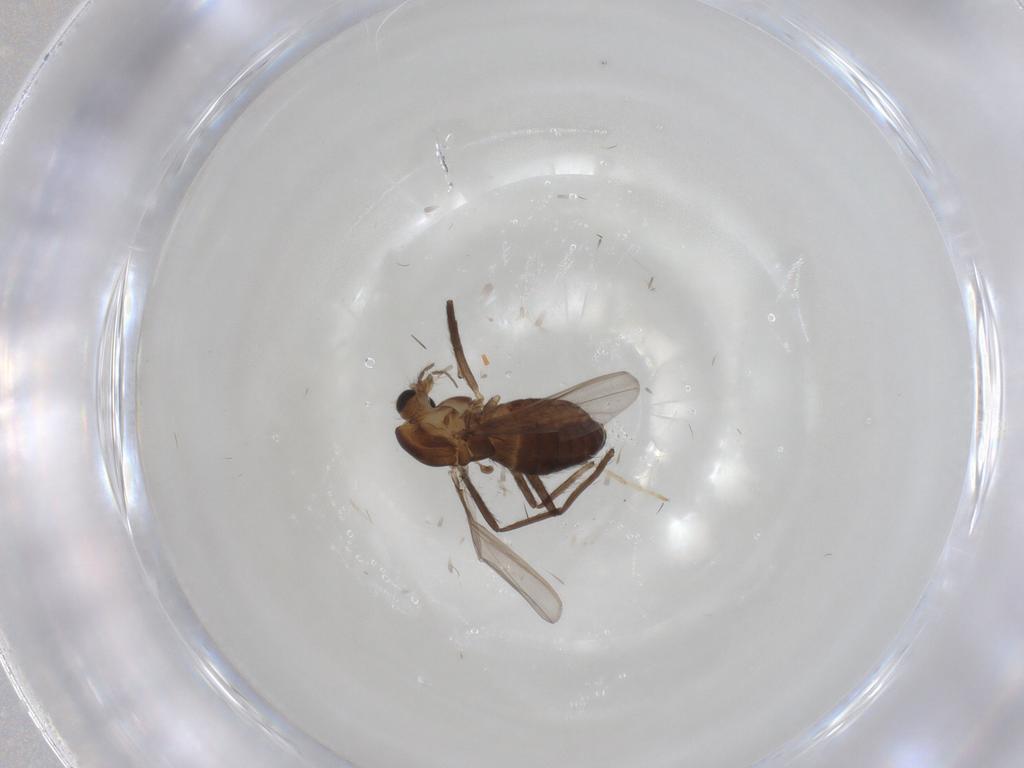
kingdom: Animalia
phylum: Arthropoda
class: Insecta
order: Diptera
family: Chironomidae
